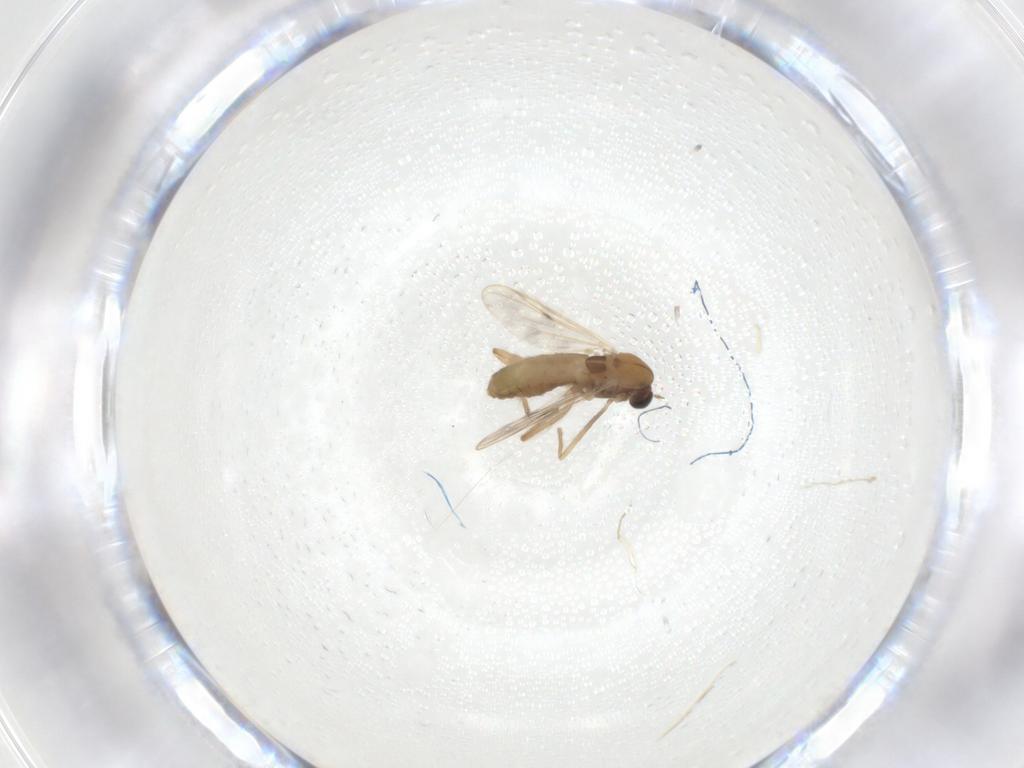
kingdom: Animalia
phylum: Arthropoda
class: Insecta
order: Diptera
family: Chironomidae
